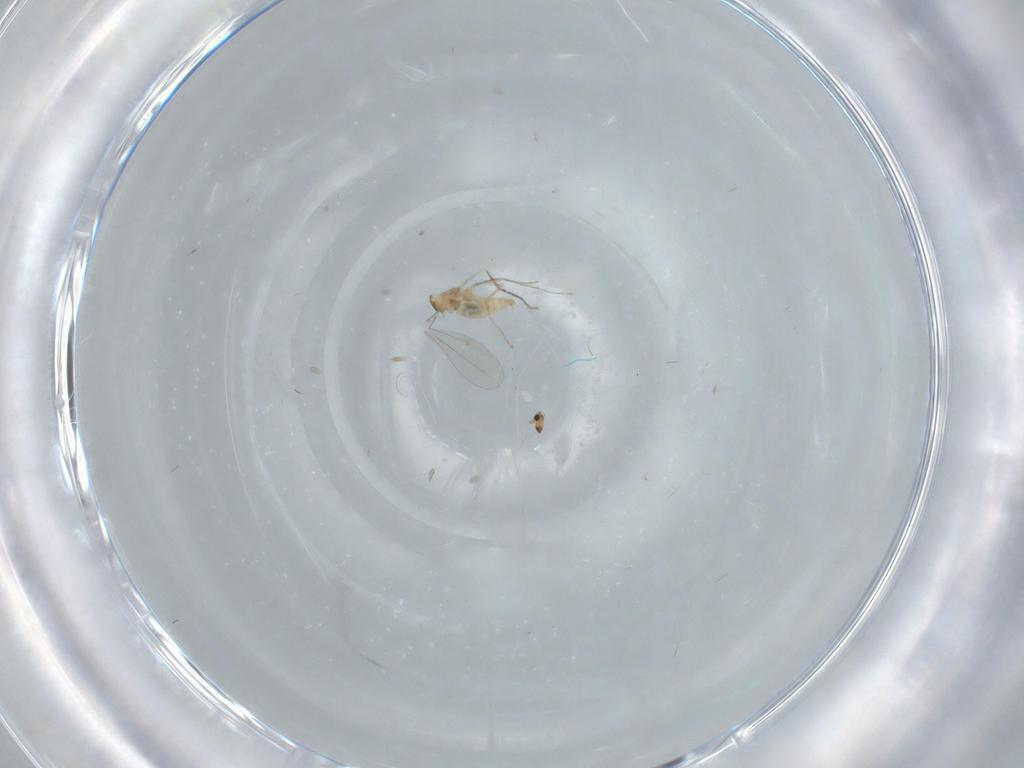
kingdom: Animalia
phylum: Arthropoda
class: Insecta
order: Diptera
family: Cecidomyiidae
